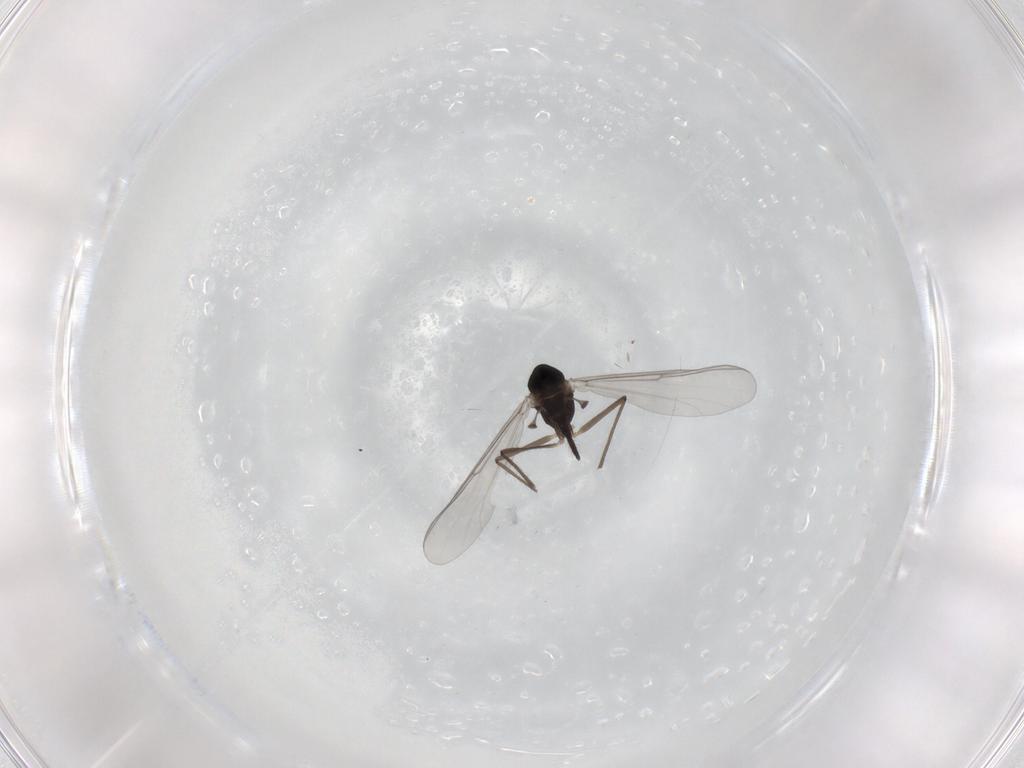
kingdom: Animalia
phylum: Arthropoda
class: Insecta
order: Diptera
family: Chironomidae
